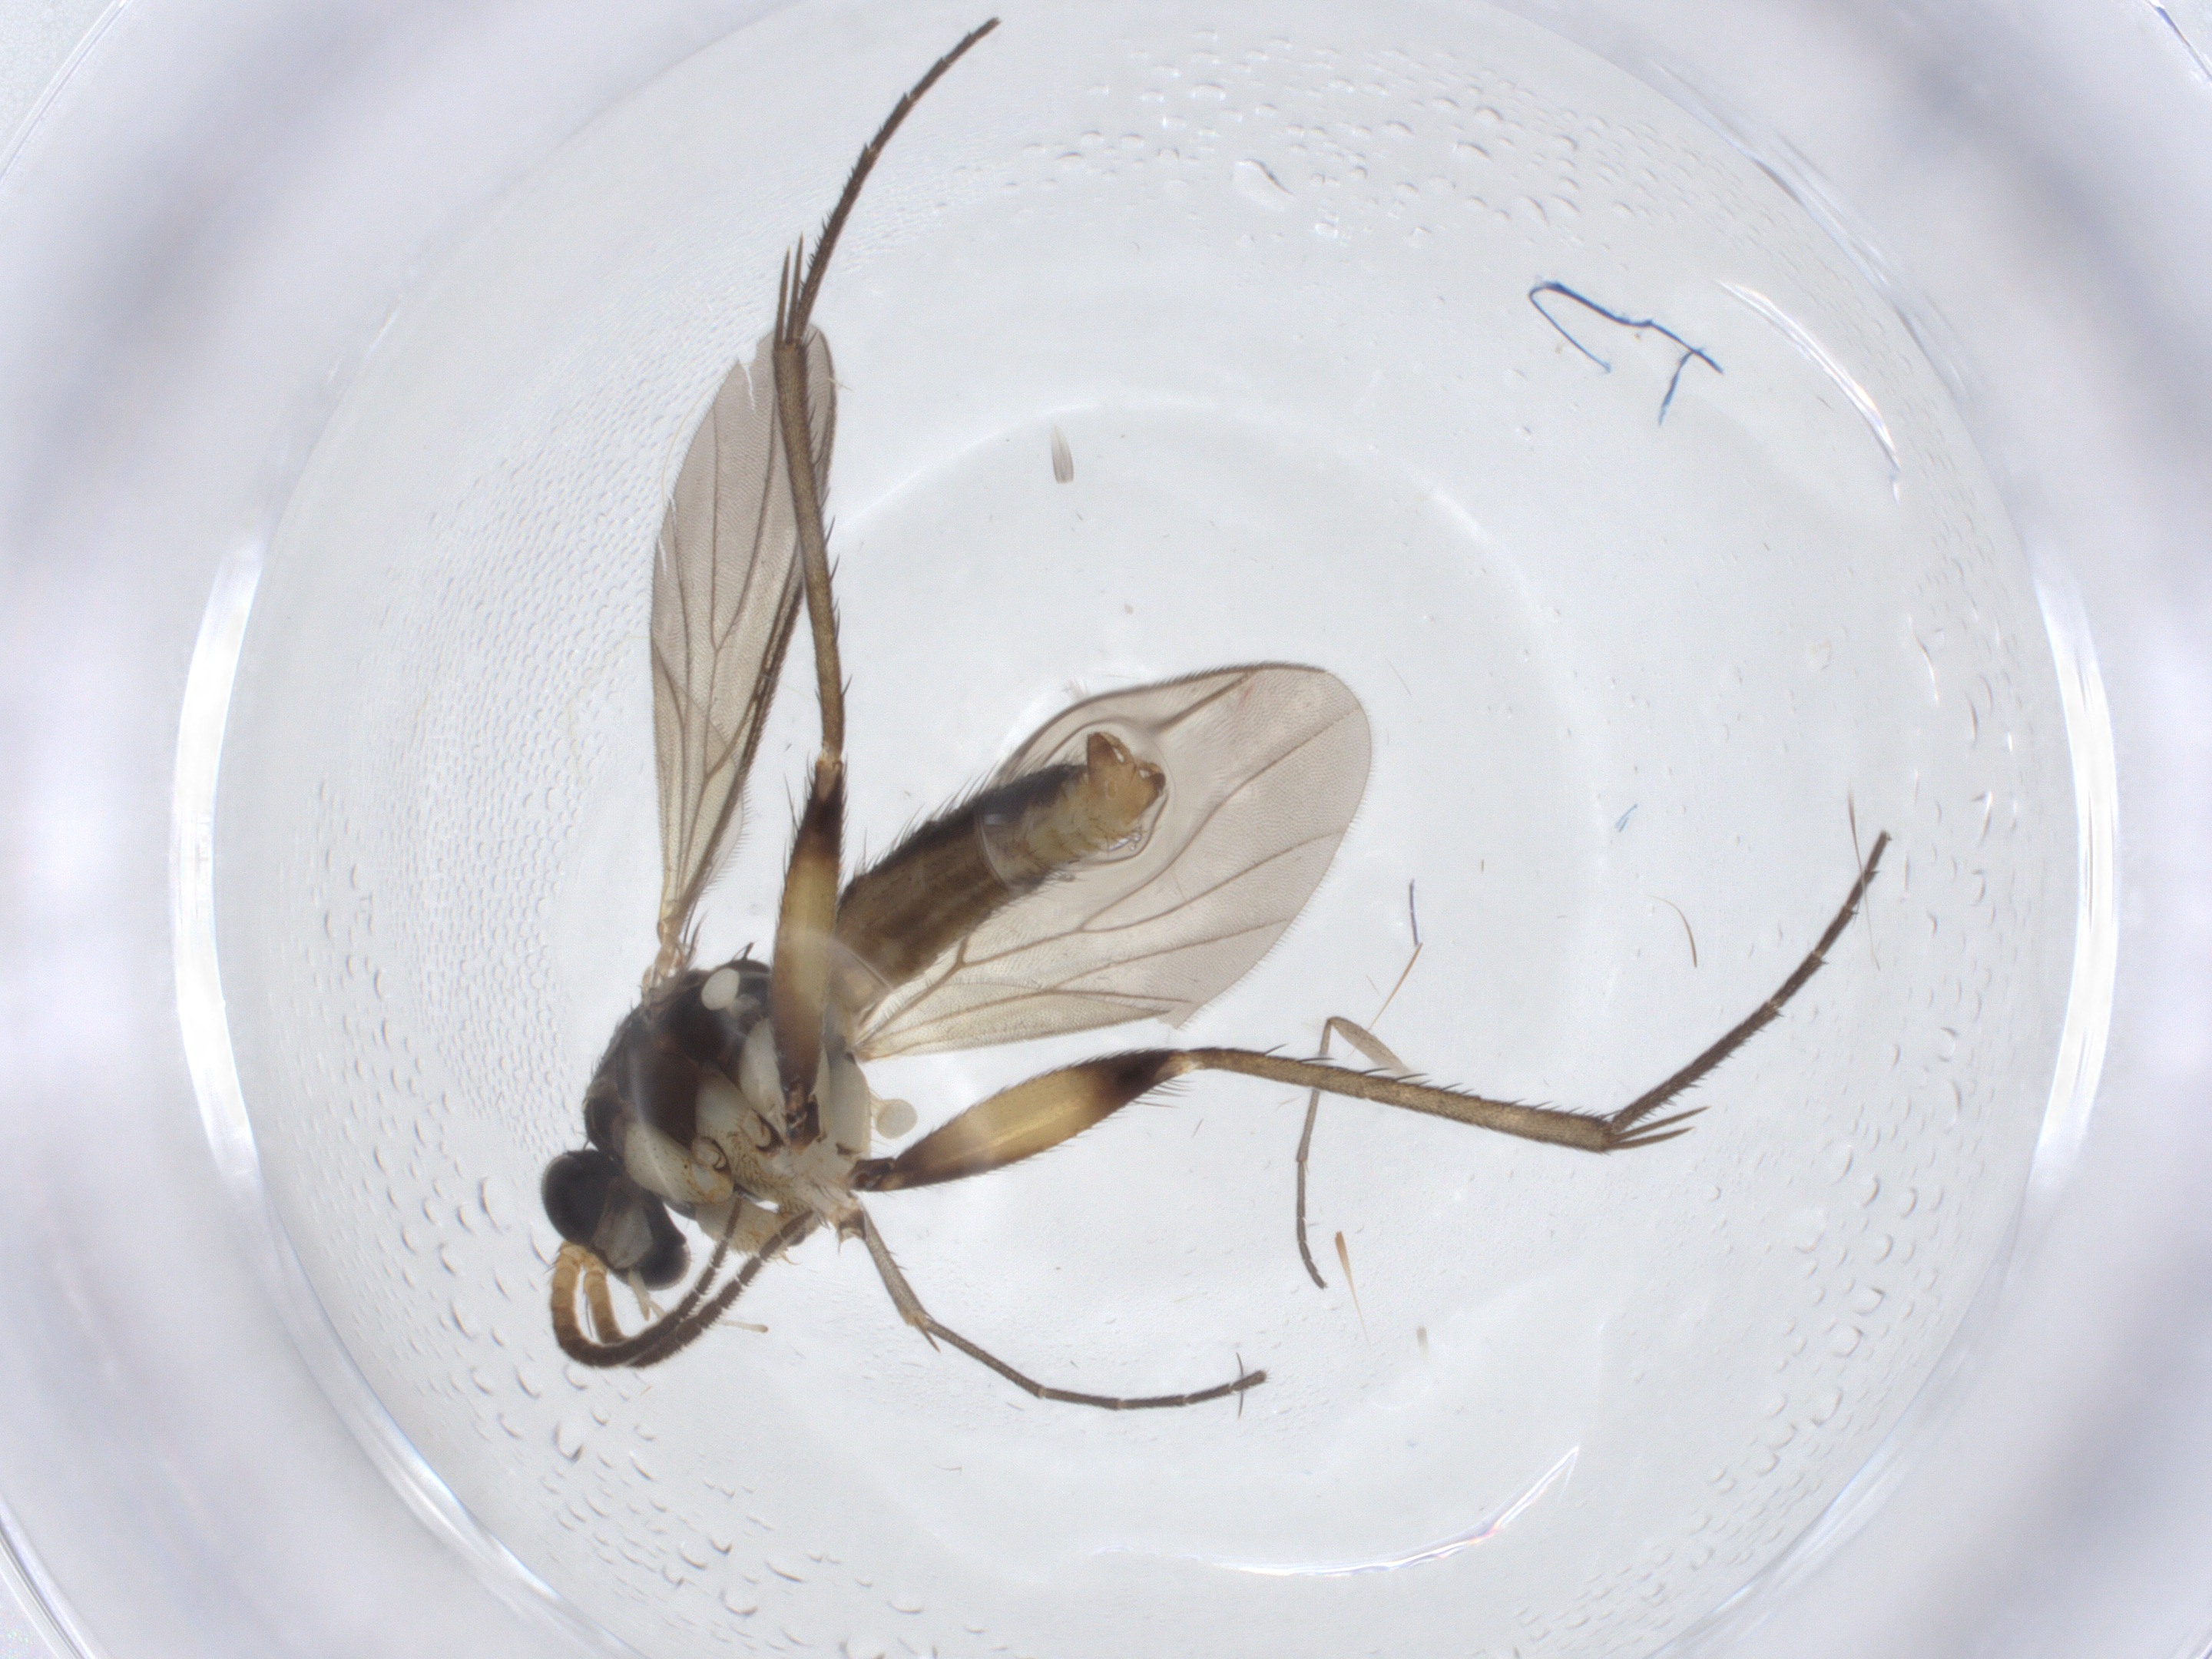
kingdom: Animalia
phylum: Arthropoda
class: Insecta
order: Diptera
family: Sciaridae
